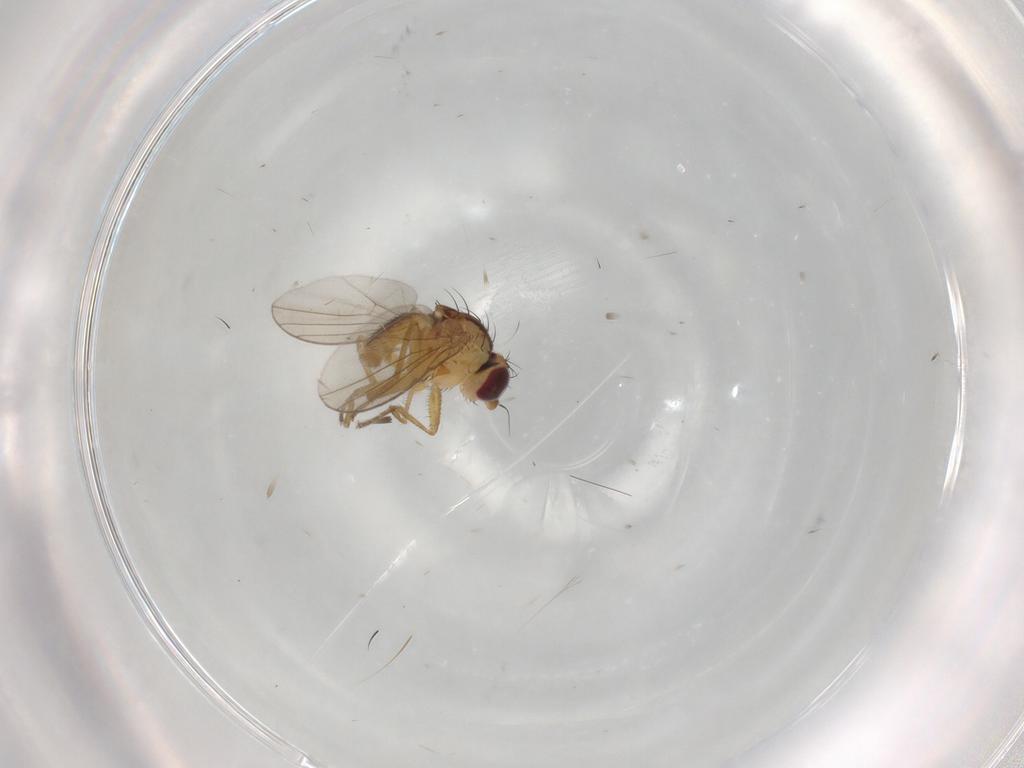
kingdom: Animalia
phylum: Arthropoda
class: Insecta
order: Diptera
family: Agromyzidae
